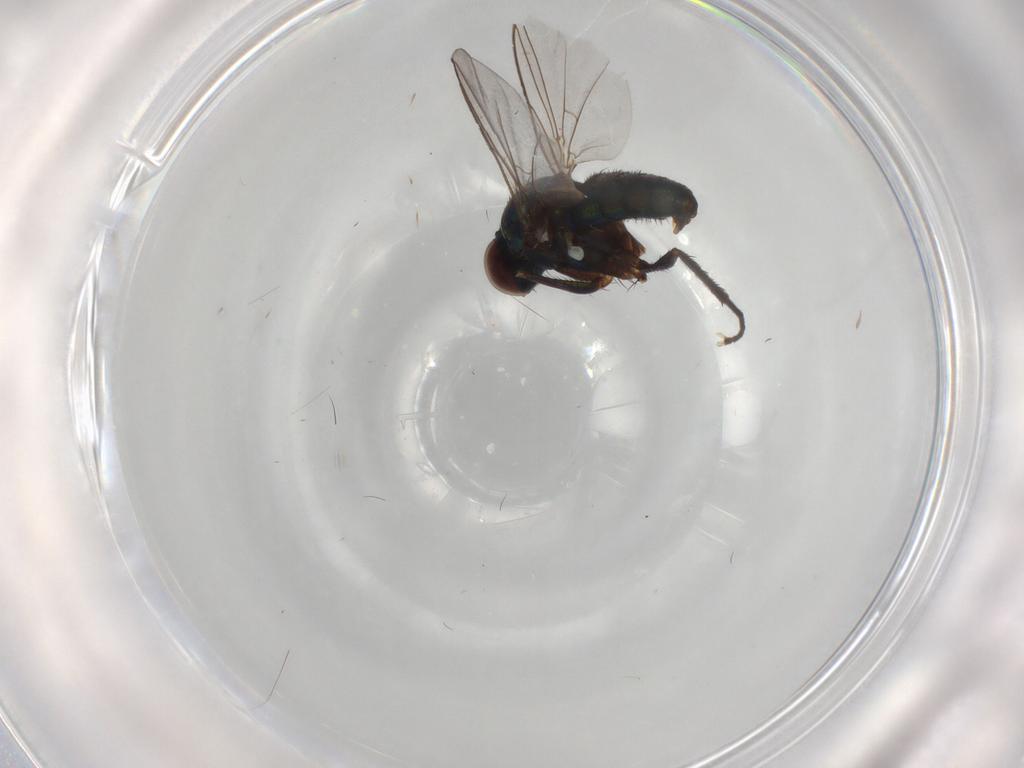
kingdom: Animalia
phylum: Arthropoda
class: Insecta
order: Diptera
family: Dolichopodidae
